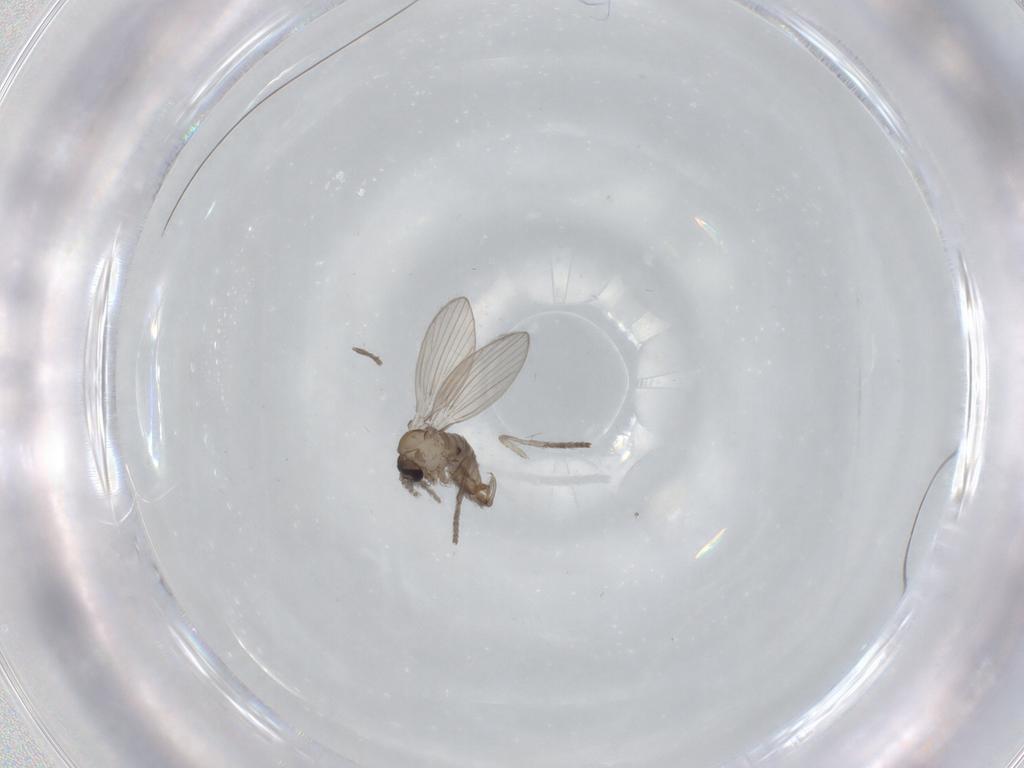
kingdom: Animalia
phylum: Arthropoda
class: Insecta
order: Diptera
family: Psychodidae
